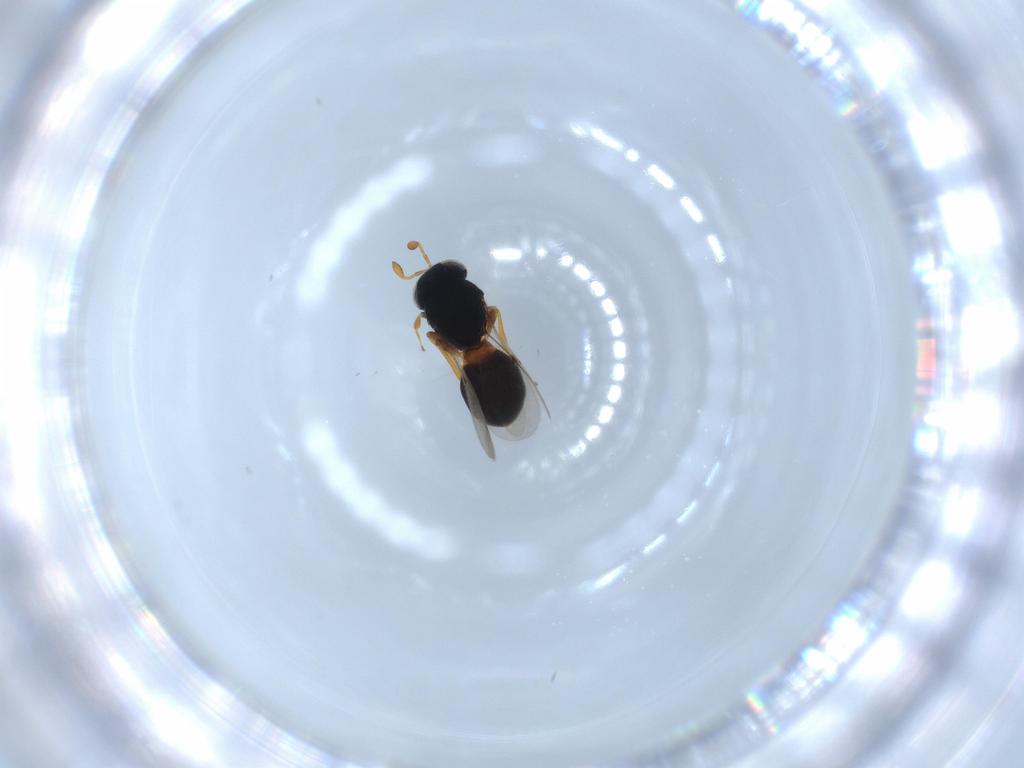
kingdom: Animalia
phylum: Arthropoda
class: Insecta
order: Hymenoptera
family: Scelionidae
